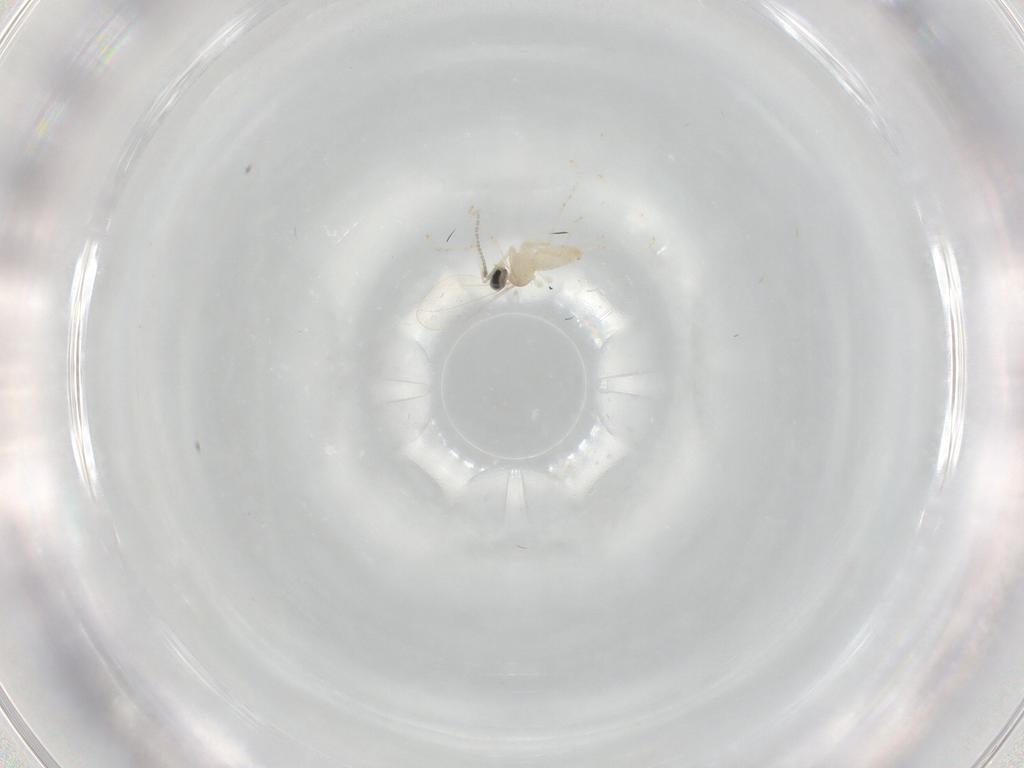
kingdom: Animalia
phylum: Arthropoda
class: Insecta
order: Diptera
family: Cecidomyiidae
